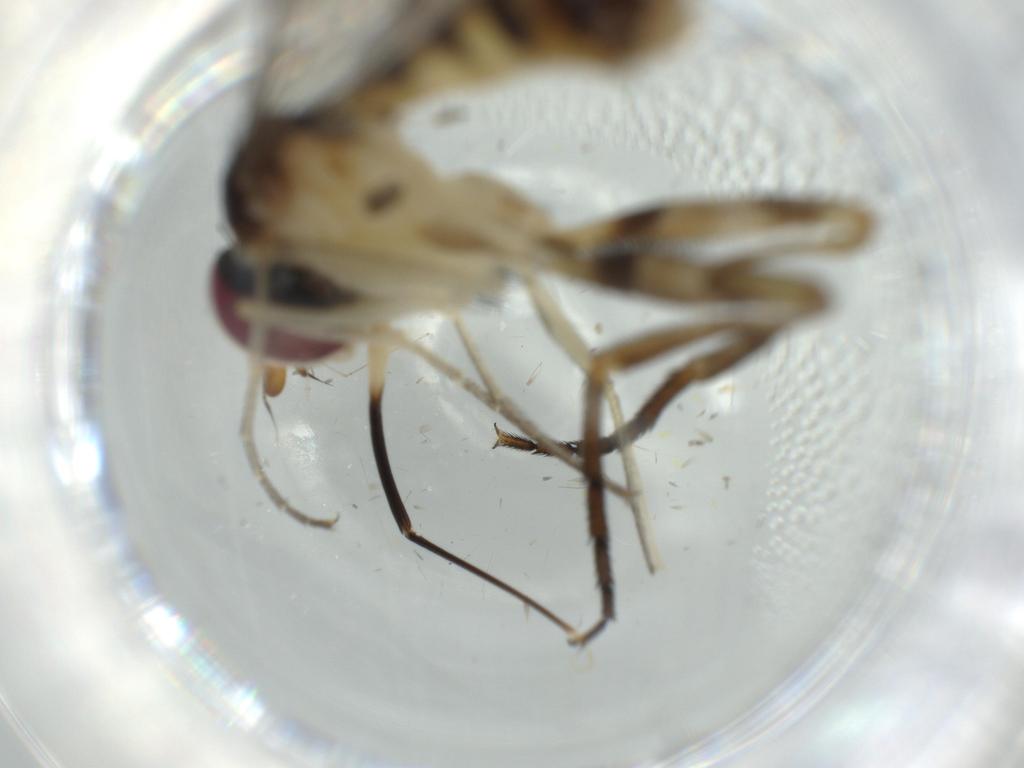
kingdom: Animalia
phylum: Arthropoda
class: Insecta
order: Diptera
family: Conopidae
